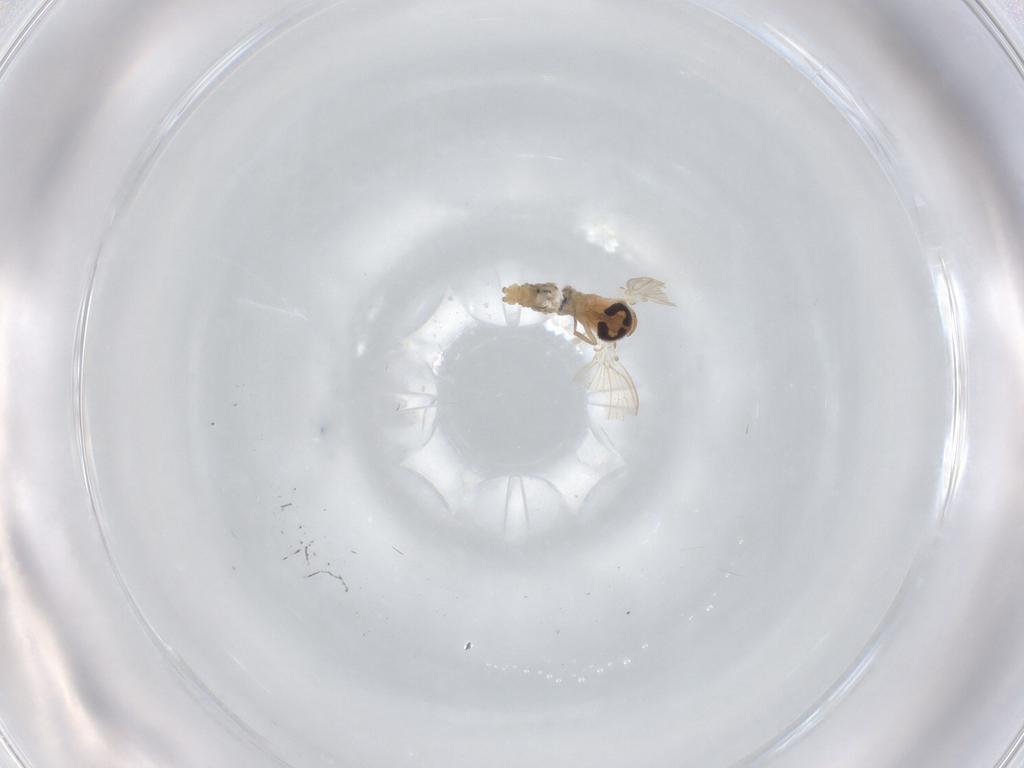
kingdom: Animalia
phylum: Arthropoda
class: Insecta
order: Diptera
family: Psychodidae
